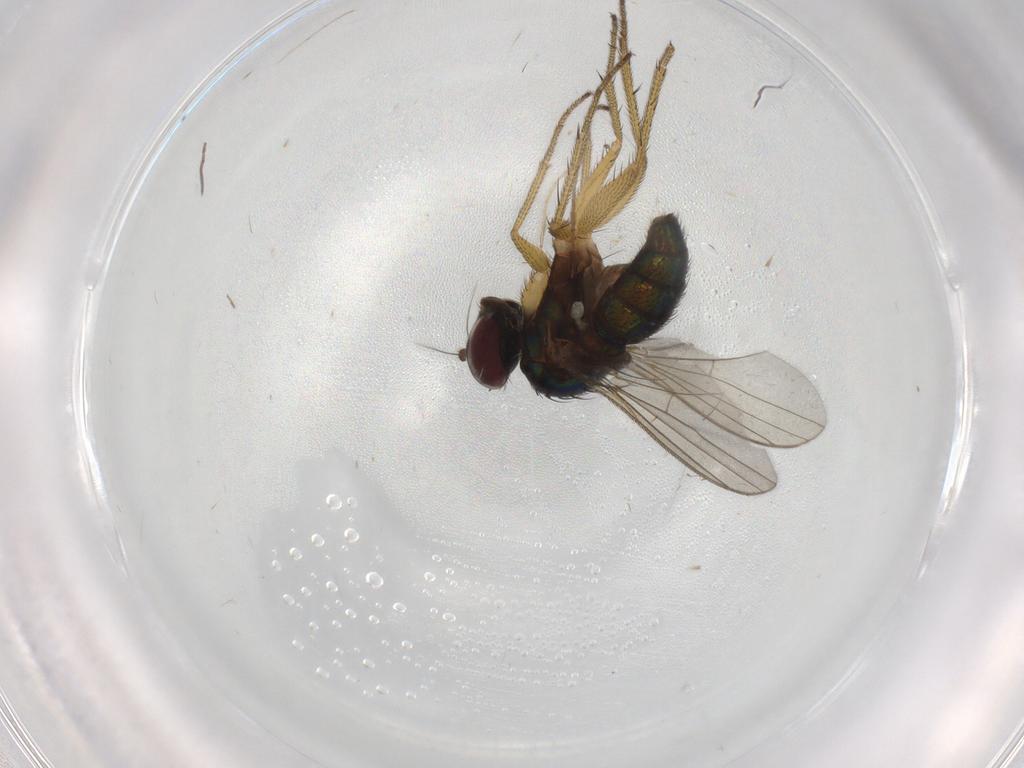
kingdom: Animalia
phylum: Arthropoda
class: Insecta
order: Diptera
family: Ceratopogonidae
